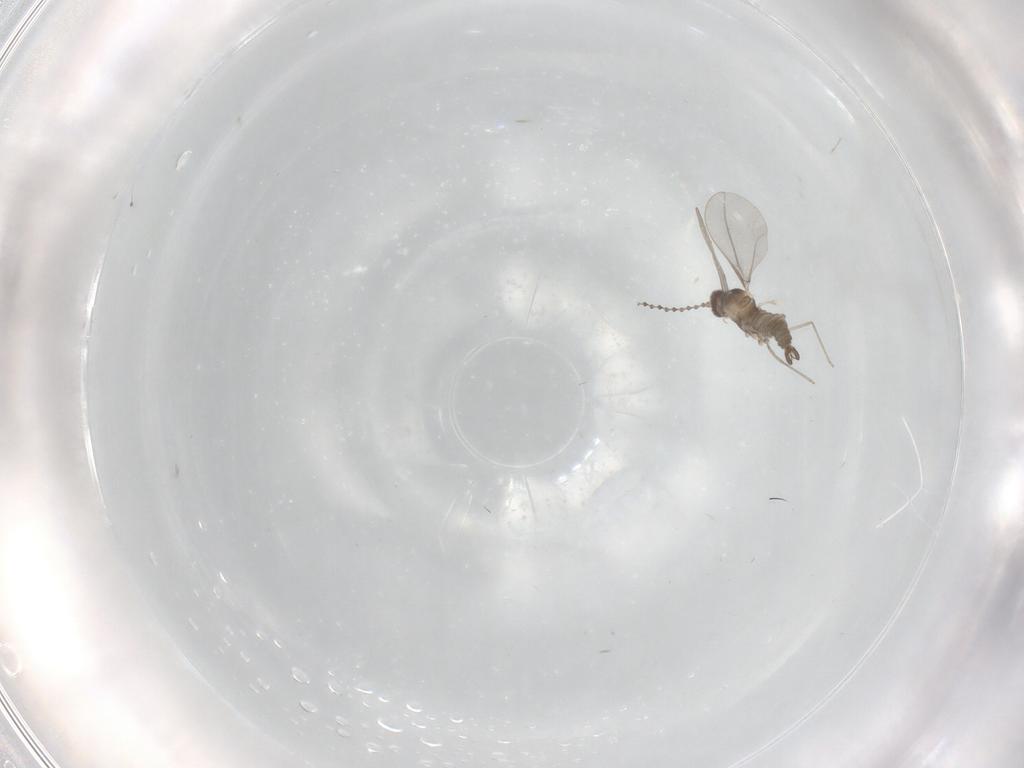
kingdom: Animalia
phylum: Arthropoda
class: Insecta
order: Diptera
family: Cecidomyiidae
